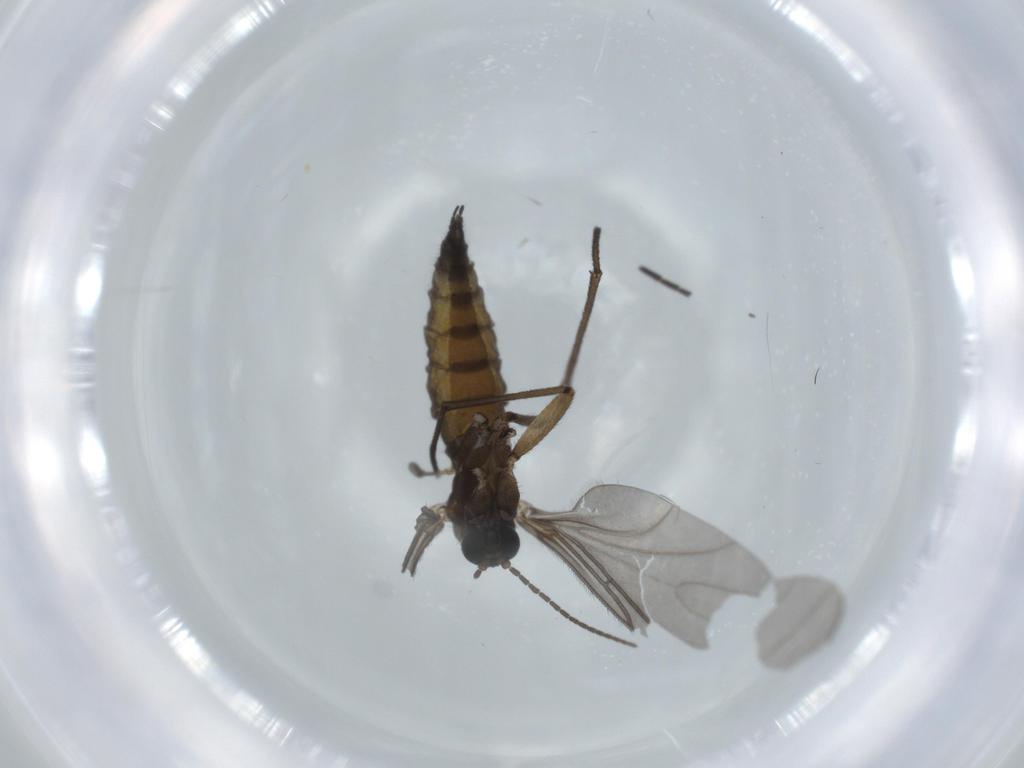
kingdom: Animalia
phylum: Arthropoda
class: Insecta
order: Diptera
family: Sciaridae
